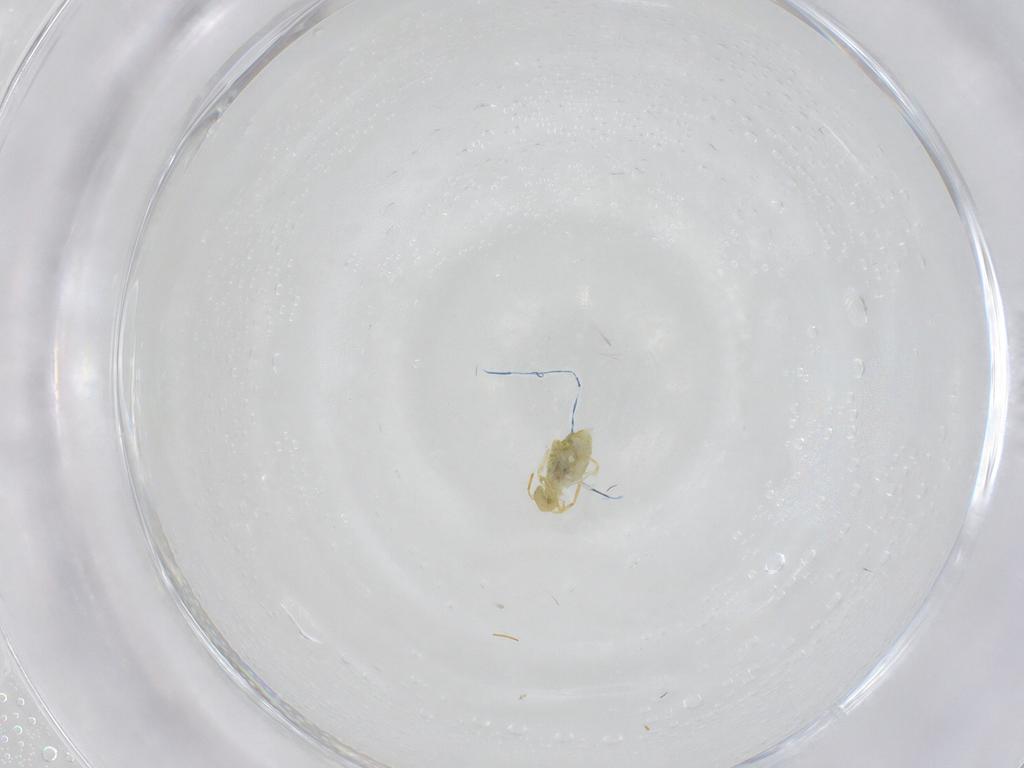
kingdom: Animalia
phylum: Arthropoda
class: Collembola
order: Symphypleona
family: Katiannidae
